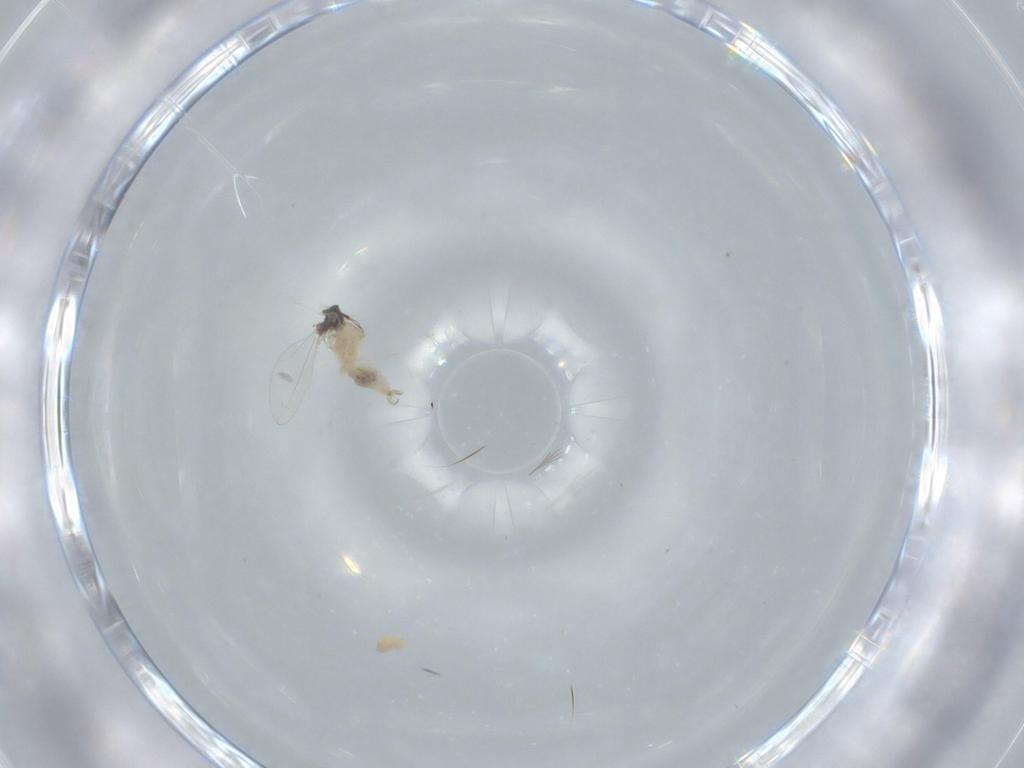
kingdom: Animalia
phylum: Arthropoda
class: Insecta
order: Diptera
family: Cecidomyiidae
